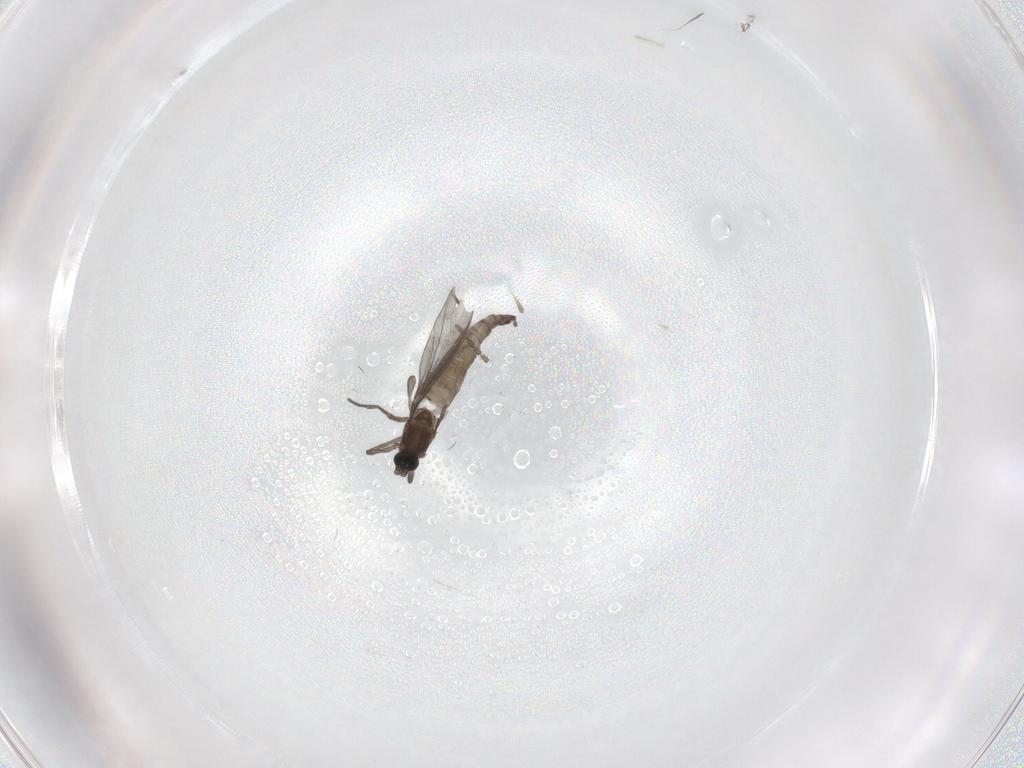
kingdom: Animalia
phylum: Arthropoda
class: Insecta
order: Diptera
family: Sciaridae
